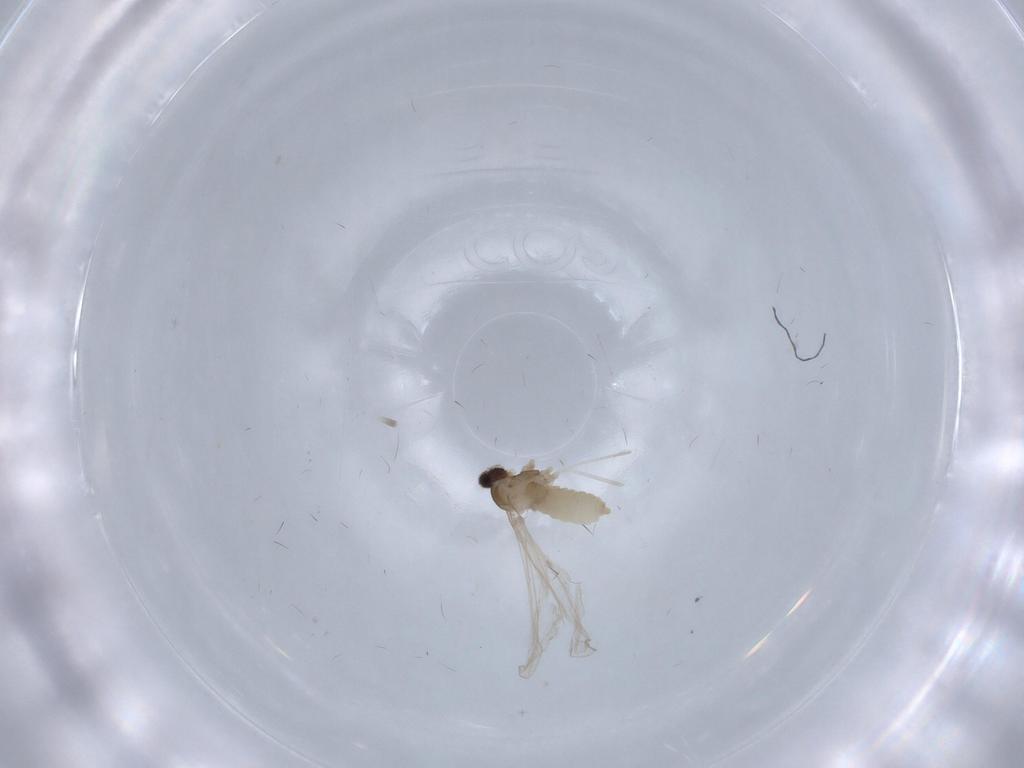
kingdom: Animalia
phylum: Arthropoda
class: Insecta
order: Diptera
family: Cecidomyiidae
